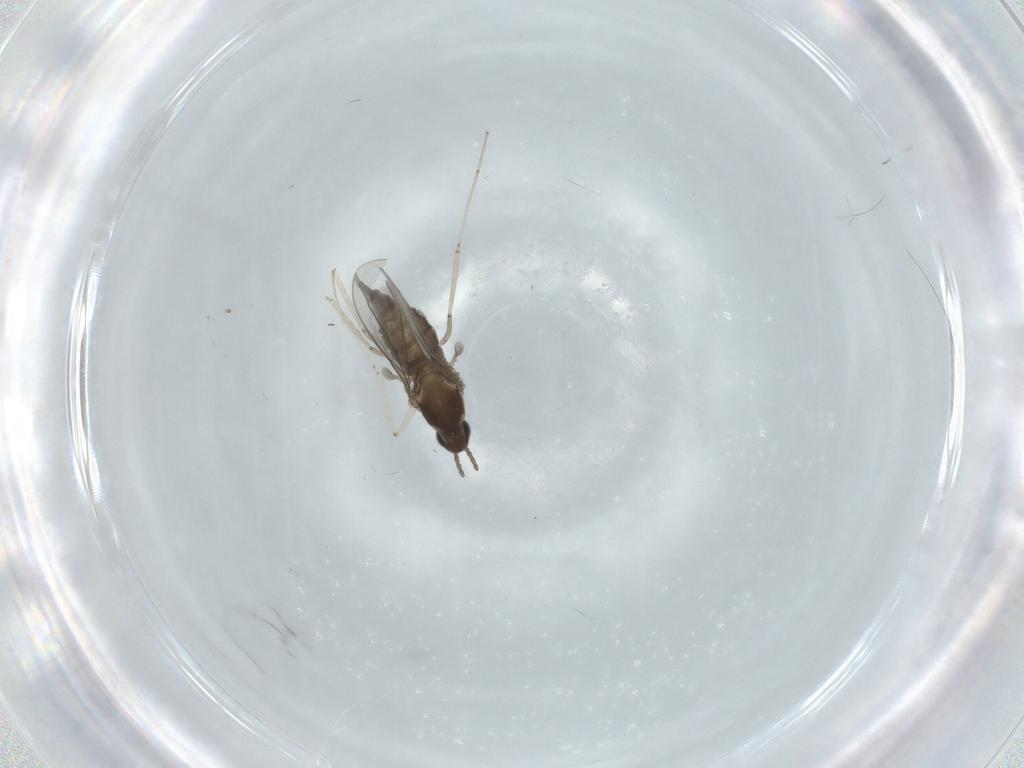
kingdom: Animalia
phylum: Arthropoda
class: Insecta
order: Diptera
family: Cecidomyiidae
